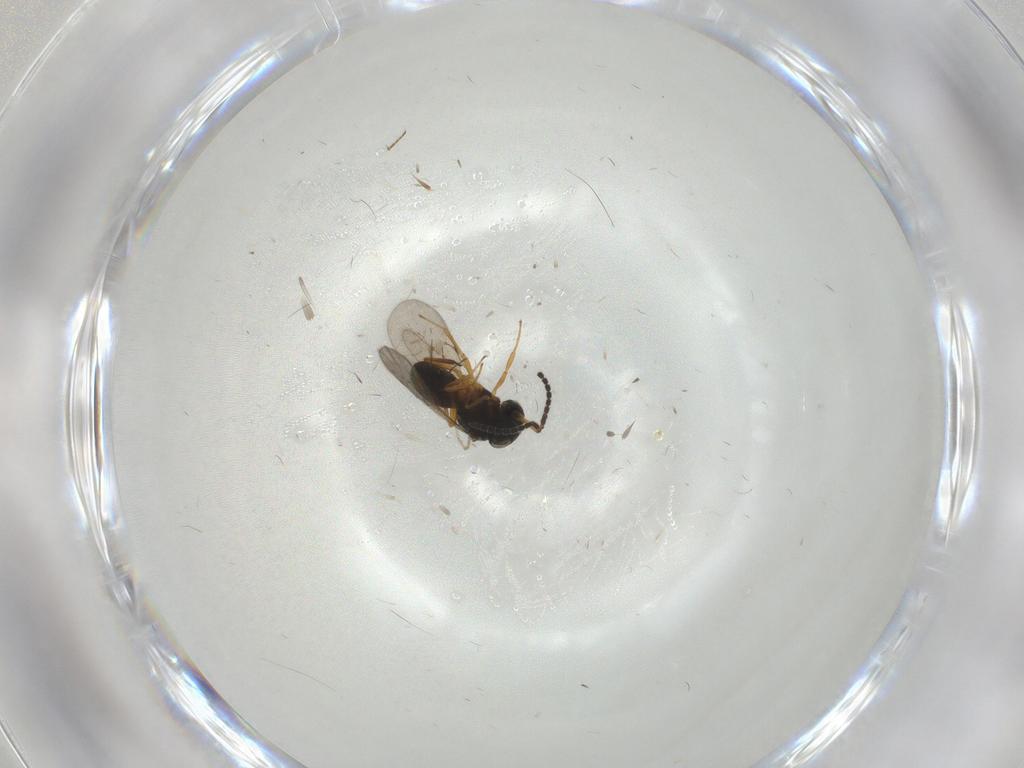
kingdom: Animalia
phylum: Arthropoda
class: Insecta
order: Hymenoptera
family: Scelionidae
